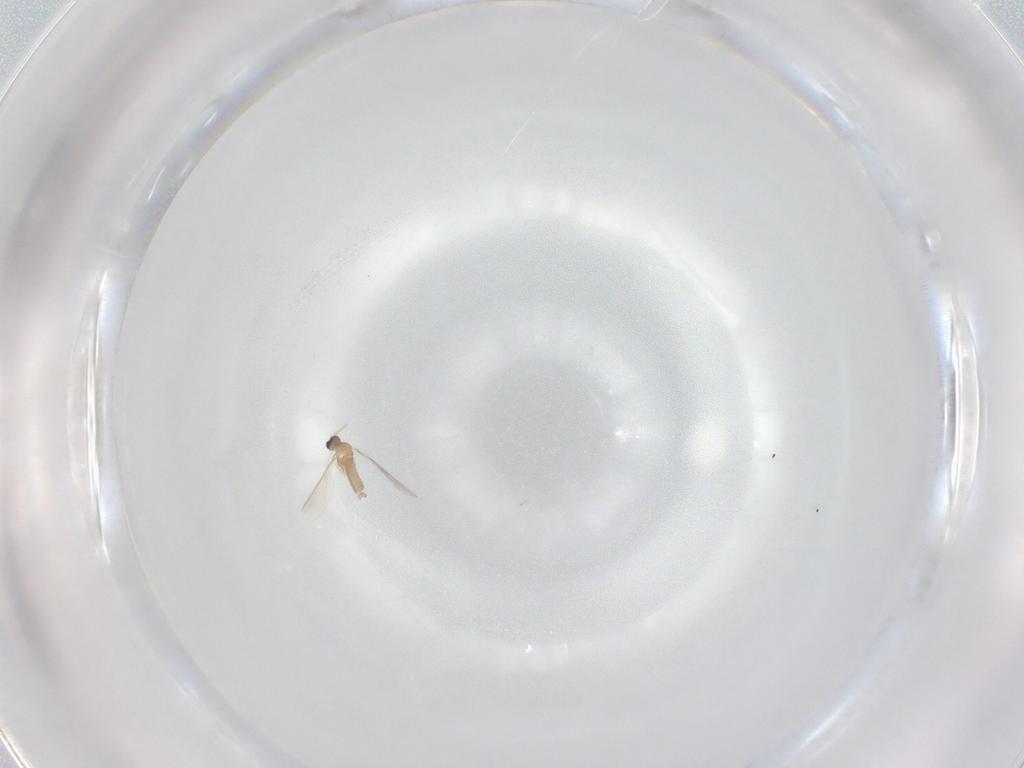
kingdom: Animalia
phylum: Arthropoda
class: Insecta
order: Diptera
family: Cecidomyiidae
